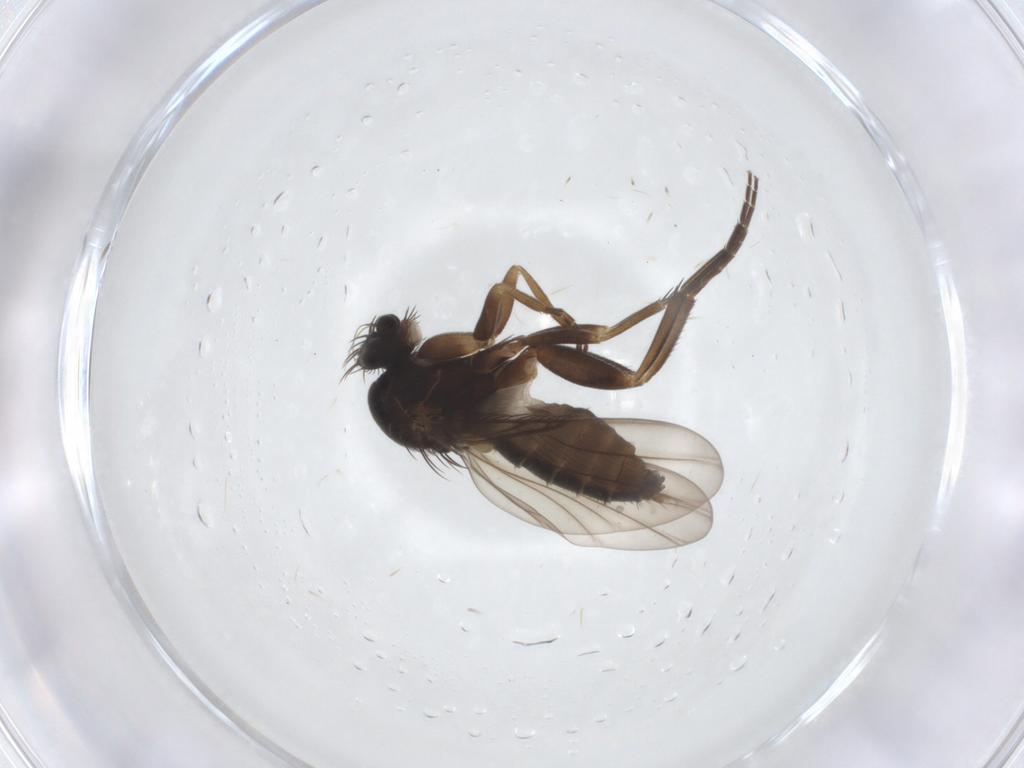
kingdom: Animalia
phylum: Arthropoda
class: Insecta
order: Diptera
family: Phoridae
